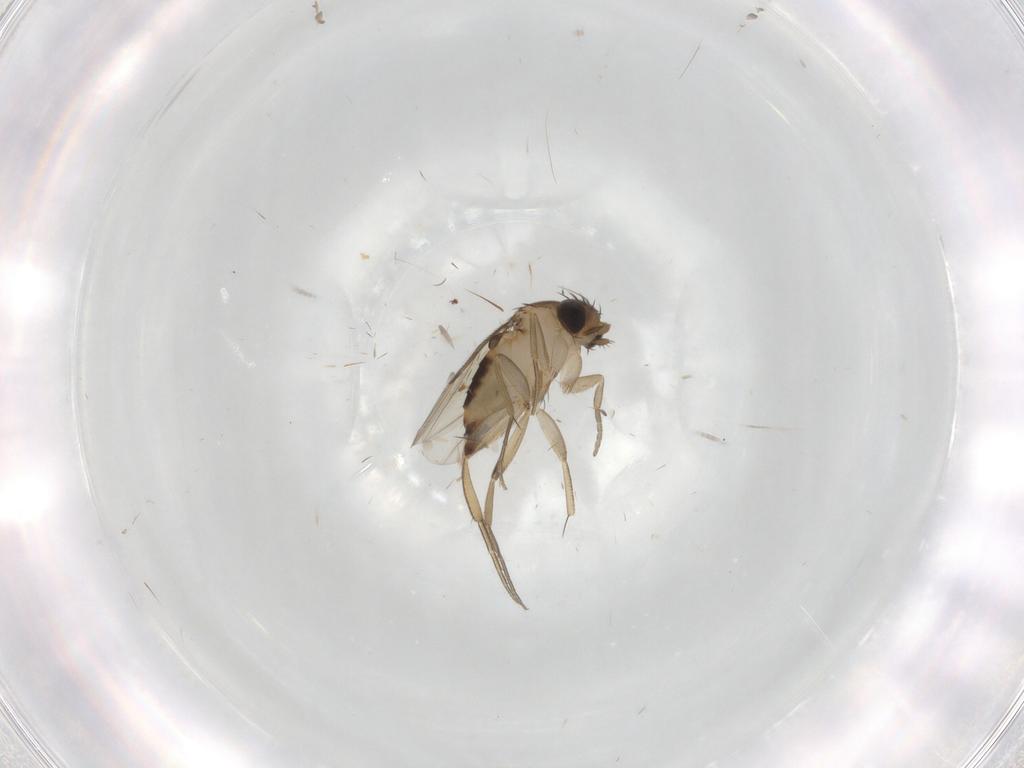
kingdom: Animalia
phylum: Arthropoda
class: Insecta
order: Diptera
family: Phoridae
